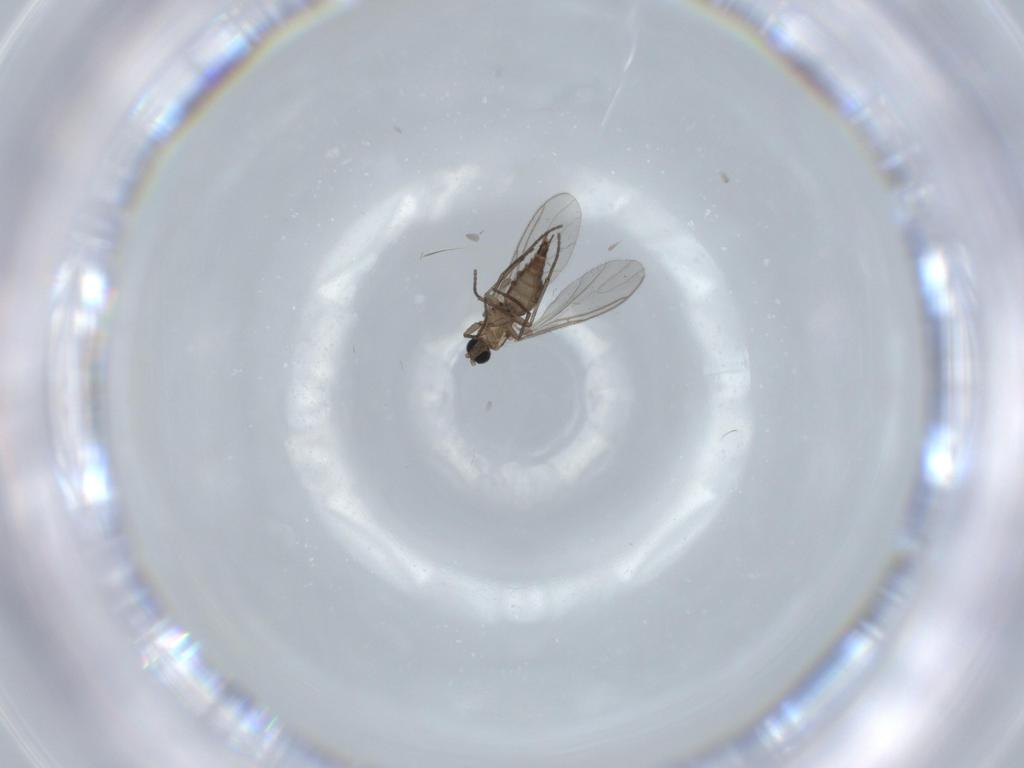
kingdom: Animalia
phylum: Arthropoda
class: Insecta
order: Diptera
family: Sciaridae
